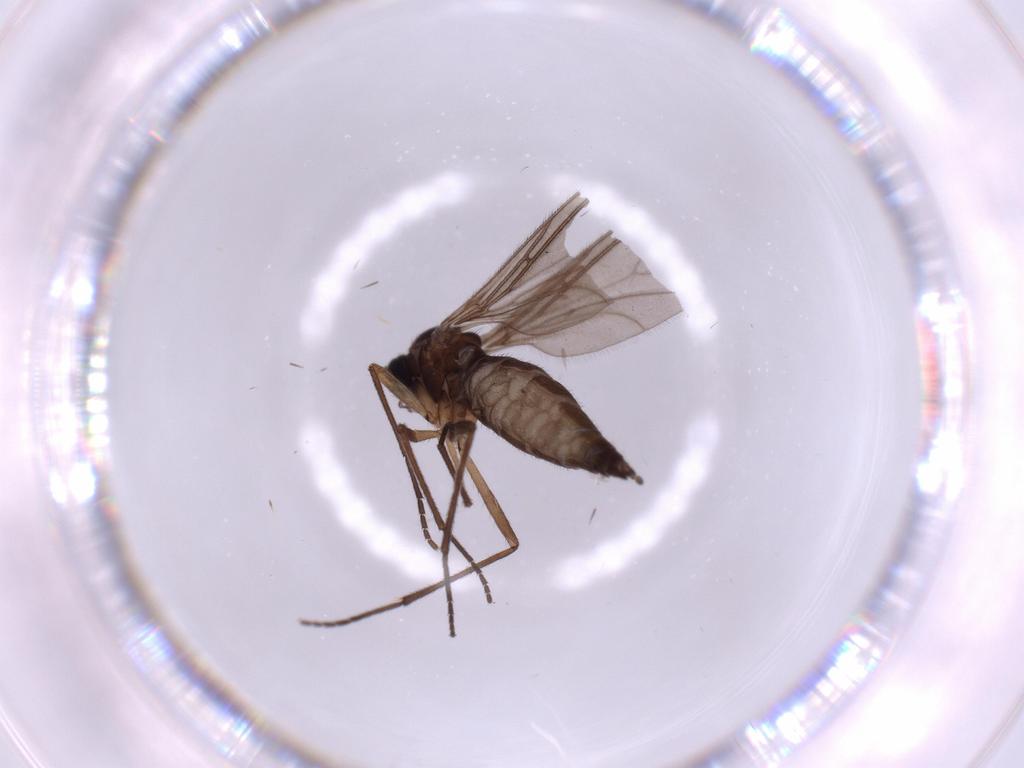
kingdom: Animalia
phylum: Arthropoda
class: Insecta
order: Diptera
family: Sciaridae
